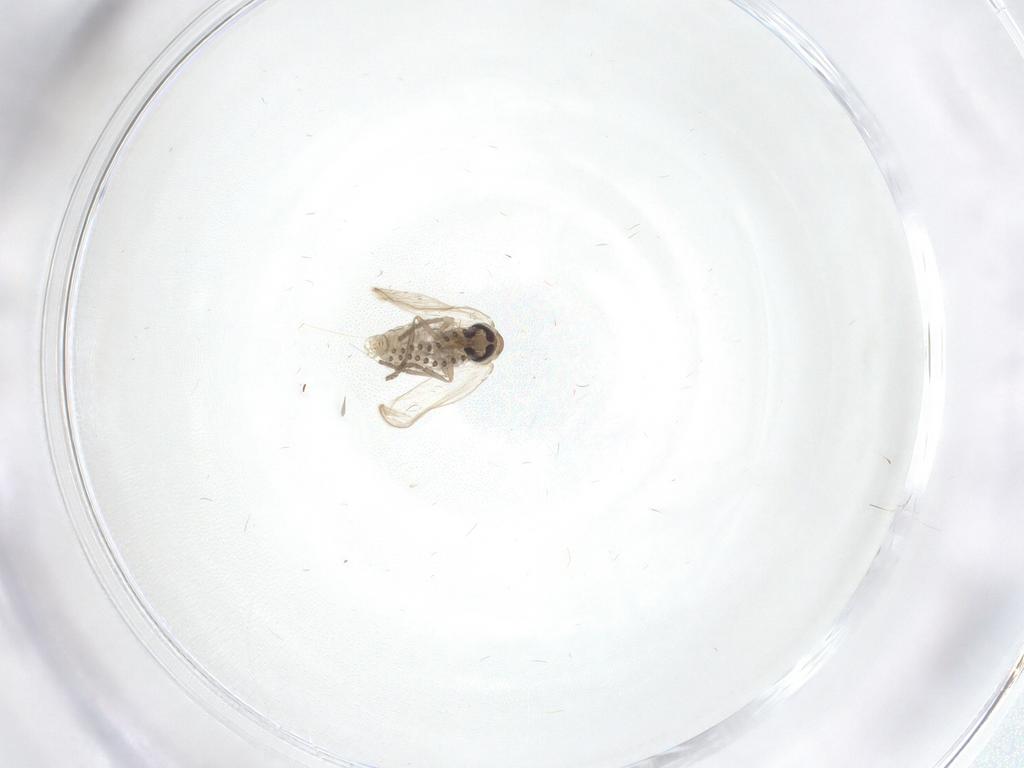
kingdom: Animalia
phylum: Arthropoda
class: Insecta
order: Diptera
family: Psychodidae
